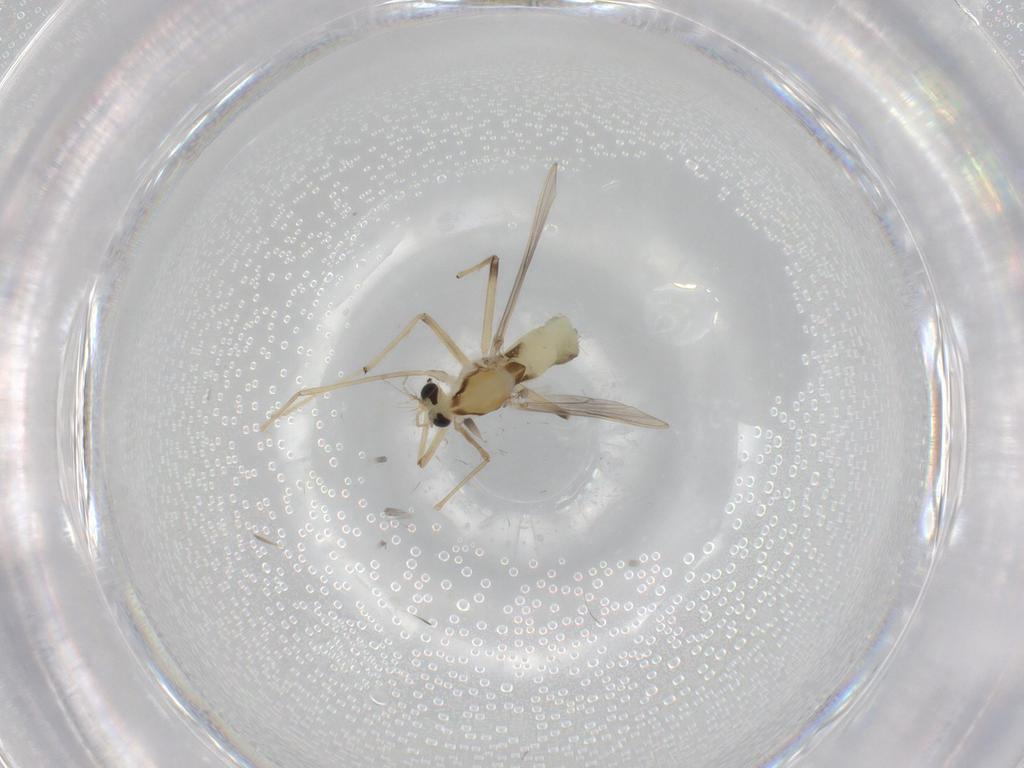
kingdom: Animalia
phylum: Arthropoda
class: Insecta
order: Diptera
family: Chironomidae
